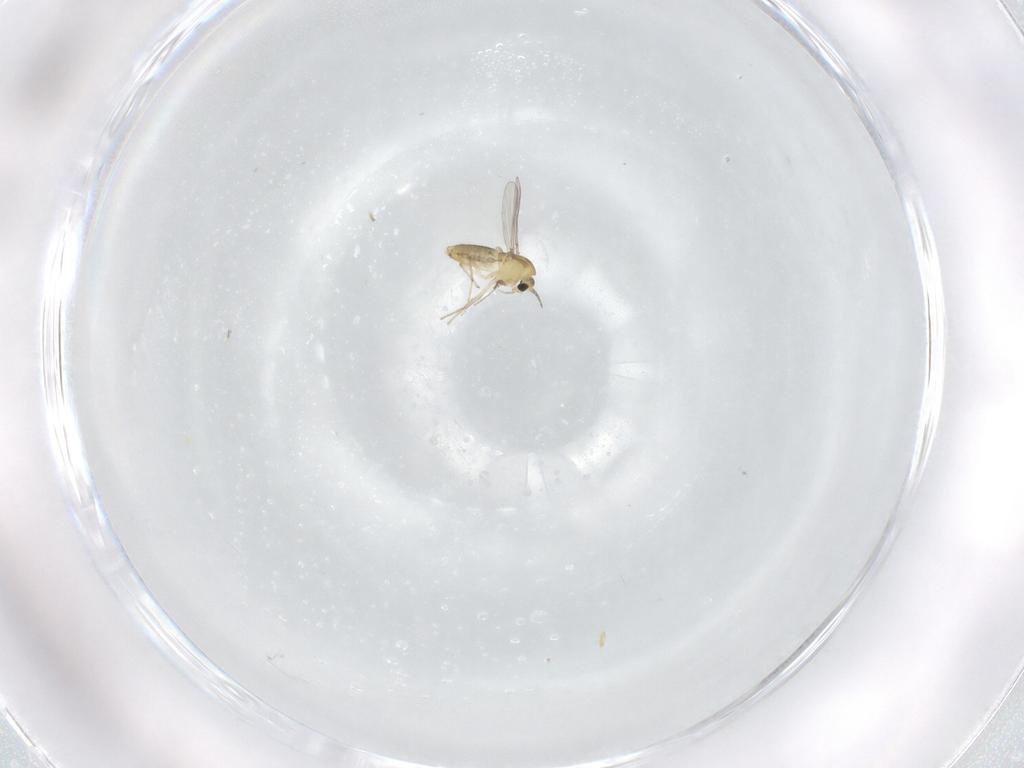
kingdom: Animalia
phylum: Arthropoda
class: Insecta
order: Diptera
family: Chironomidae
